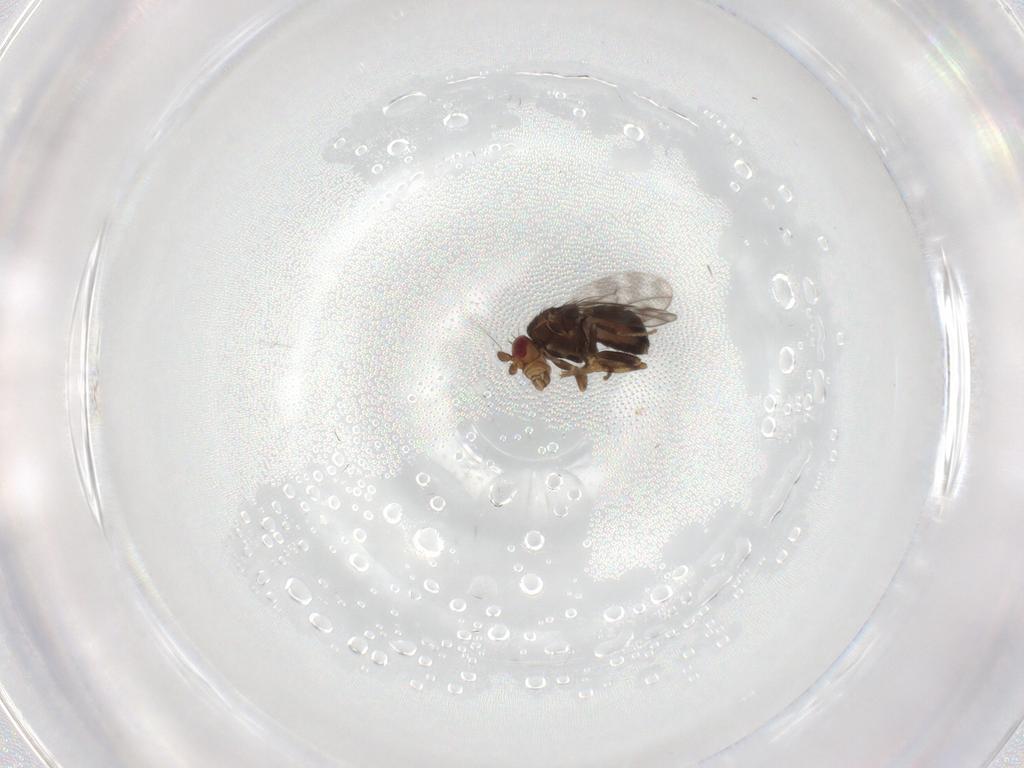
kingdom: Animalia
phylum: Arthropoda
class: Insecta
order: Diptera
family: Sphaeroceridae
